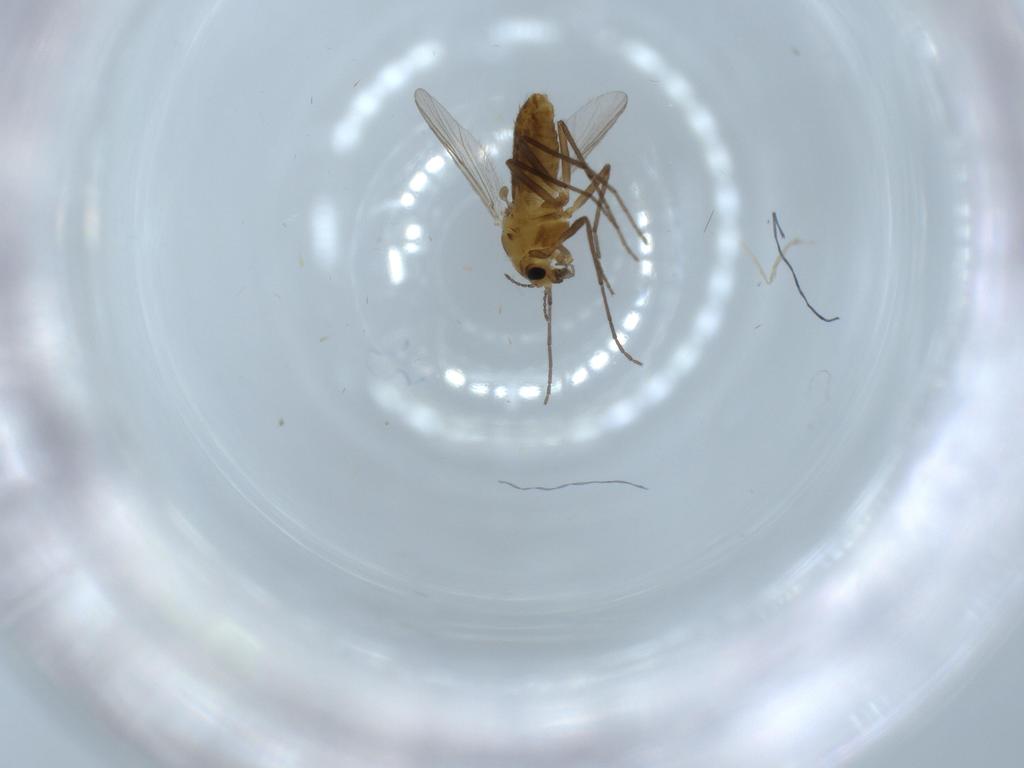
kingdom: Animalia
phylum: Arthropoda
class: Insecta
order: Diptera
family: Chironomidae
